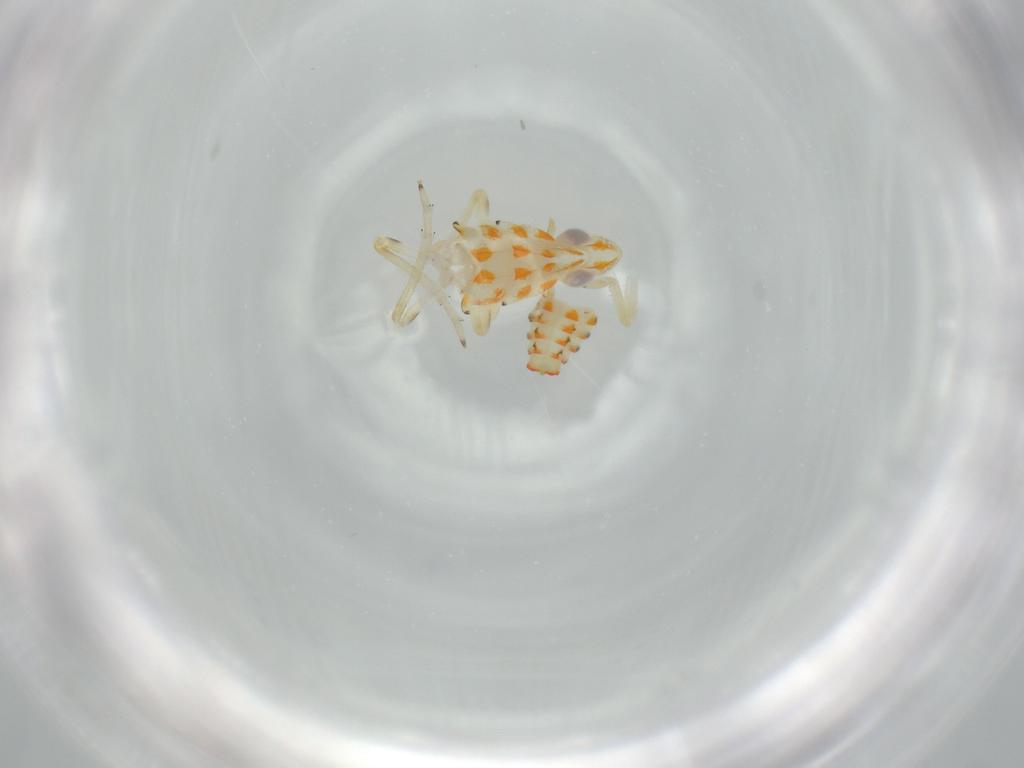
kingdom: Animalia
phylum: Arthropoda
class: Insecta
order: Hemiptera
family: Tropiduchidae
